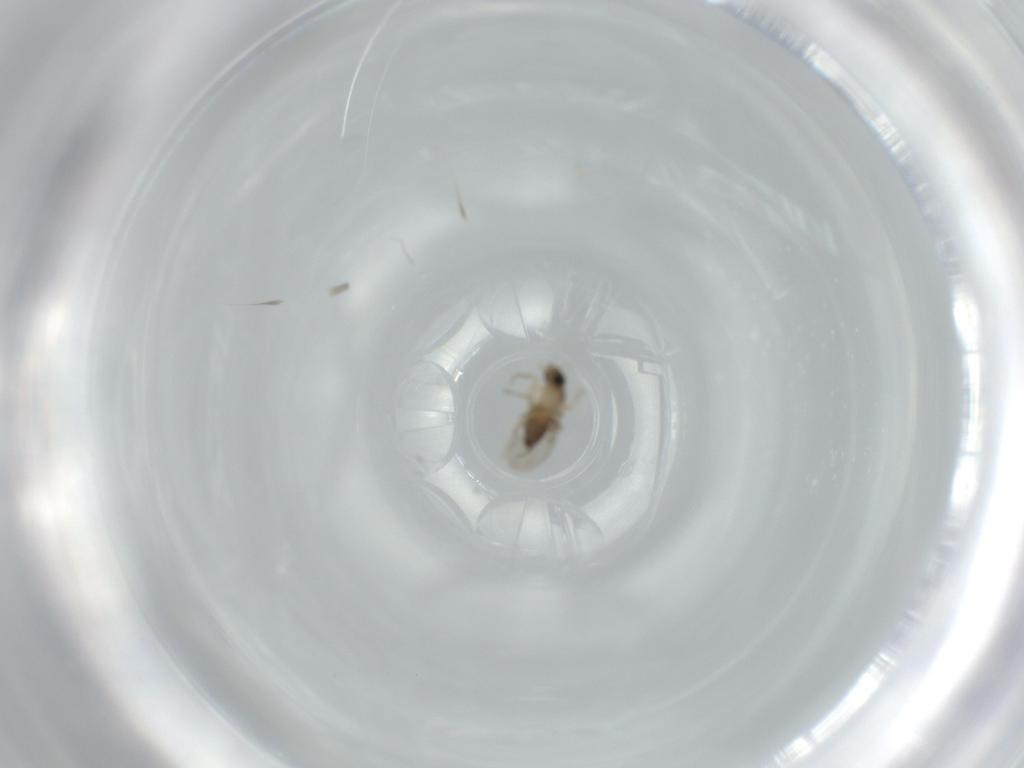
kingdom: Animalia
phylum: Arthropoda
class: Insecta
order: Diptera
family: Phoridae
